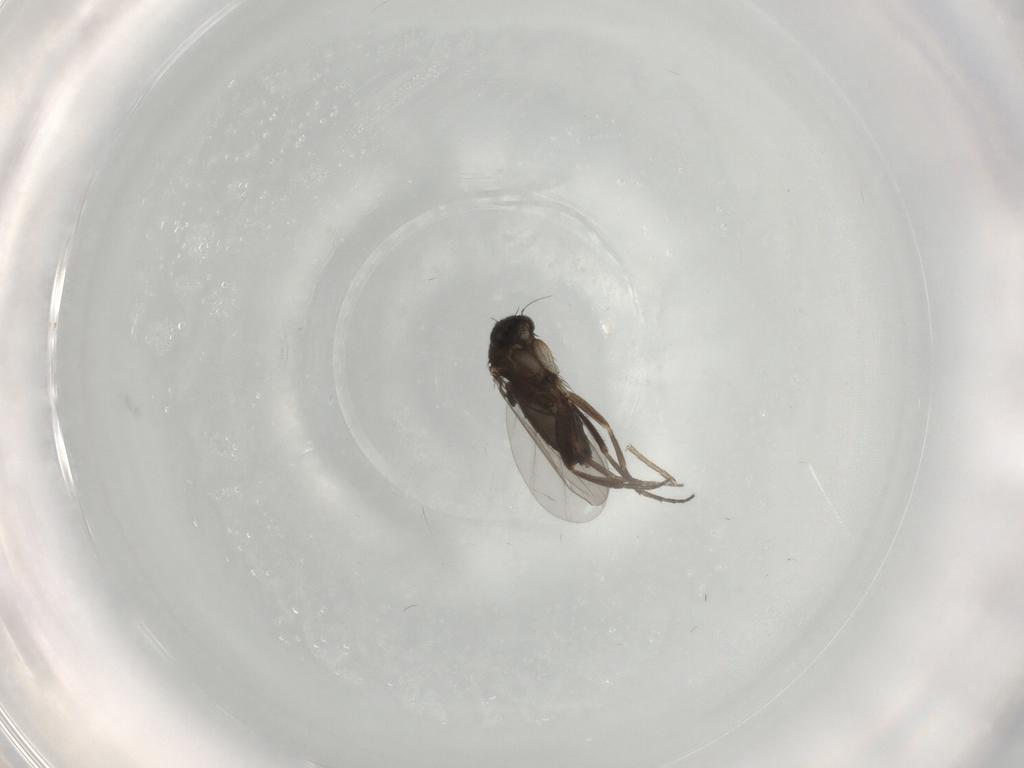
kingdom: Animalia
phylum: Arthropoda
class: Insecta
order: Diptera
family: Phoridae
